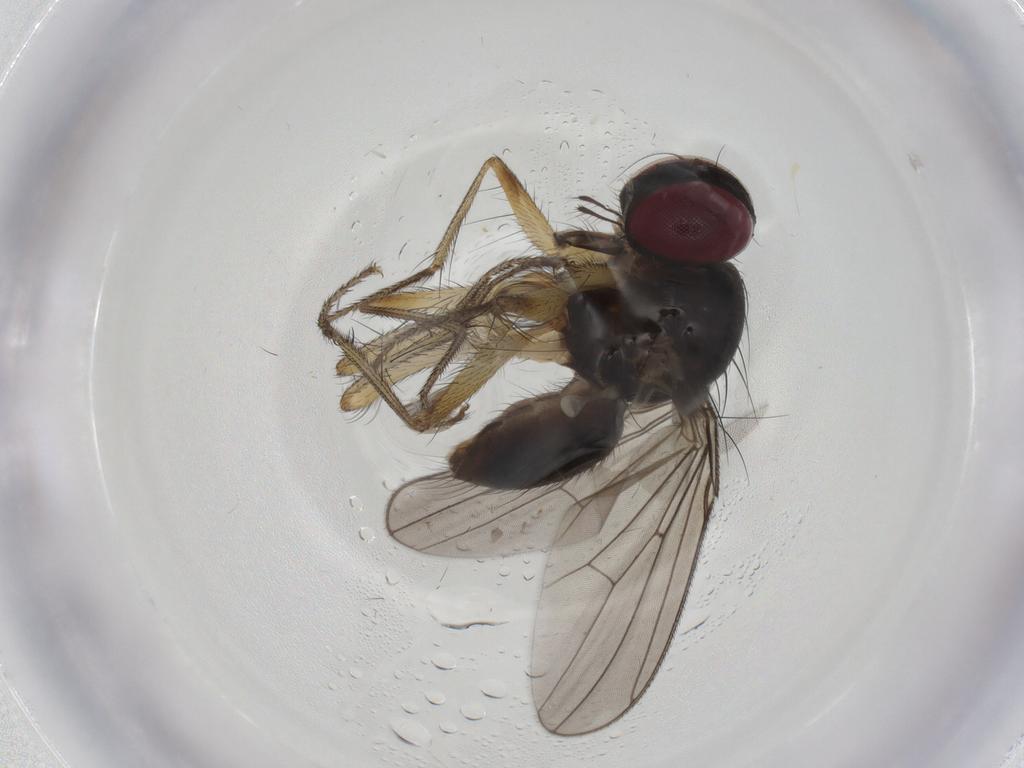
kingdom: Animalia
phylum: Arthropoda
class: Insecta
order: Diptera
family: Anthomyiidae
